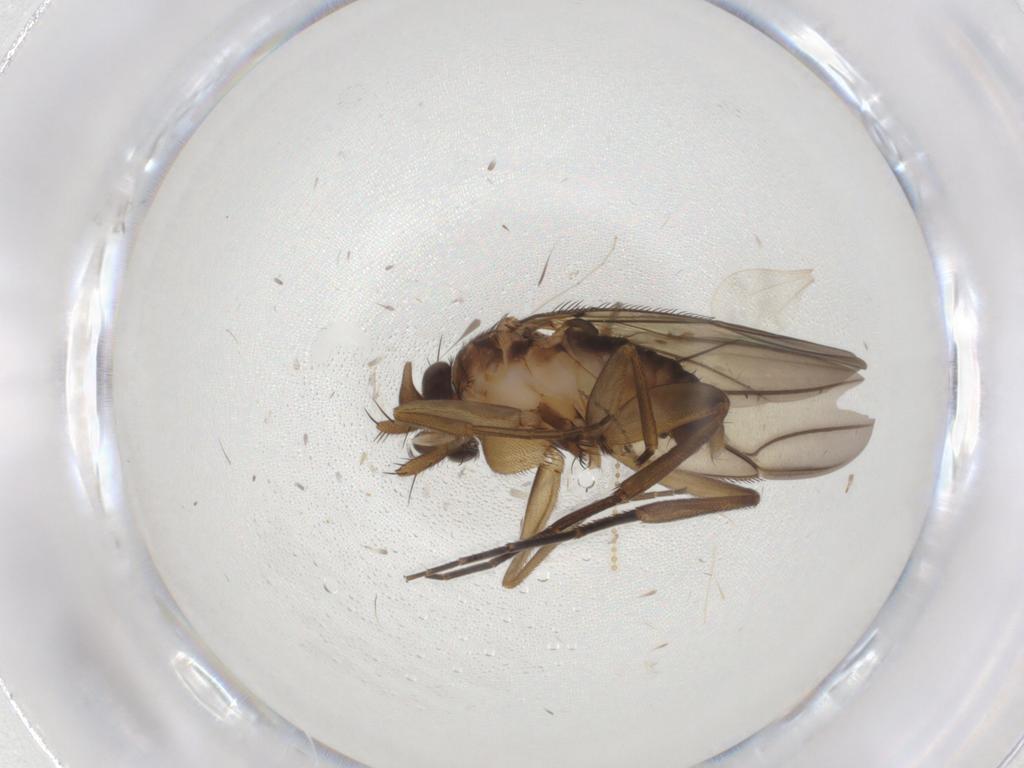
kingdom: Animalia
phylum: Arthropoda
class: Insecta
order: Diptera
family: Phoridae
